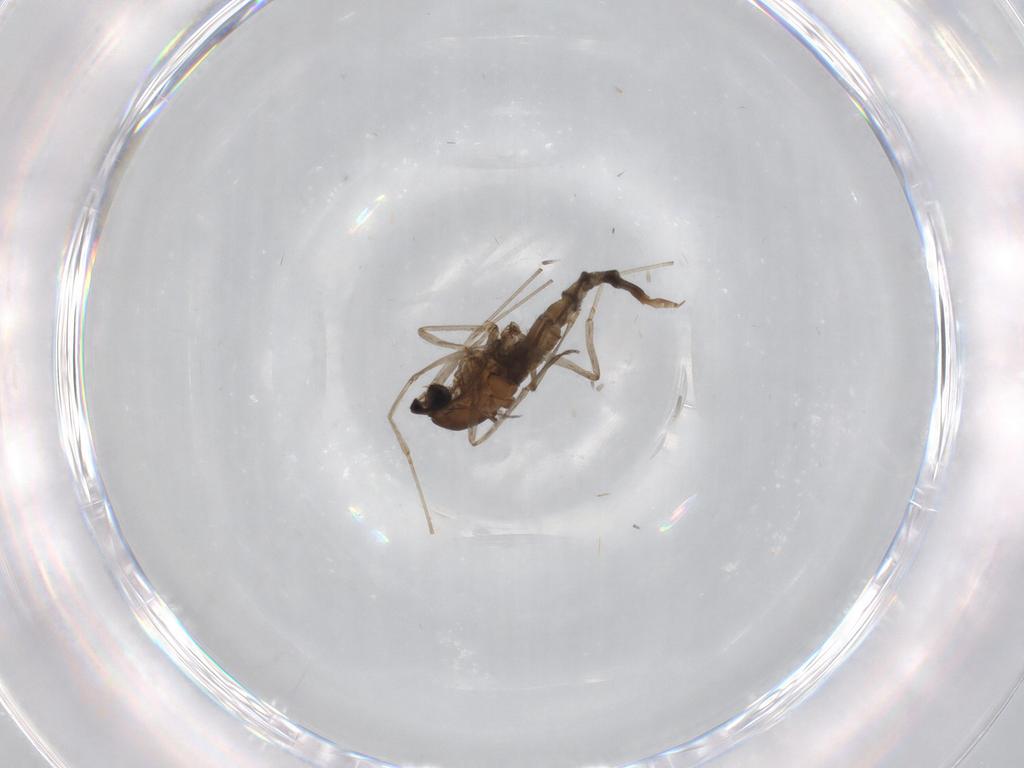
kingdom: Animalia
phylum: Arthropoda
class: Insecta
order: Diptera
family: Cecidomyiidae
